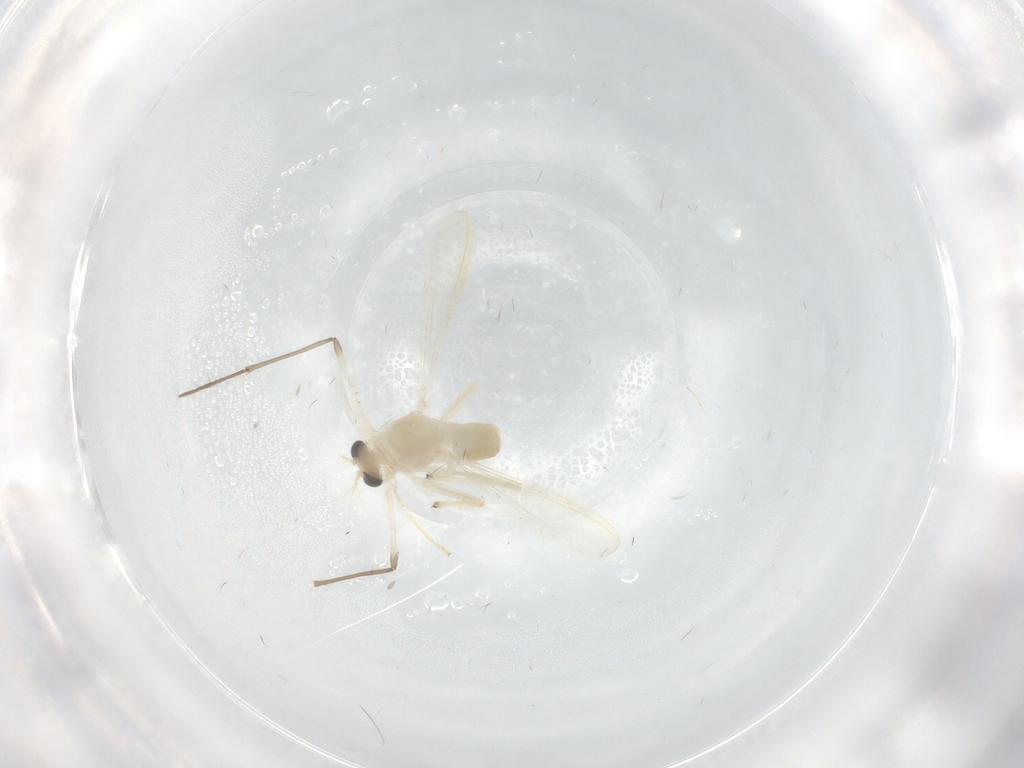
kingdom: Animalia
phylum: Arthropoda
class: Insecta
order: Diptera
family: Chironomidae
